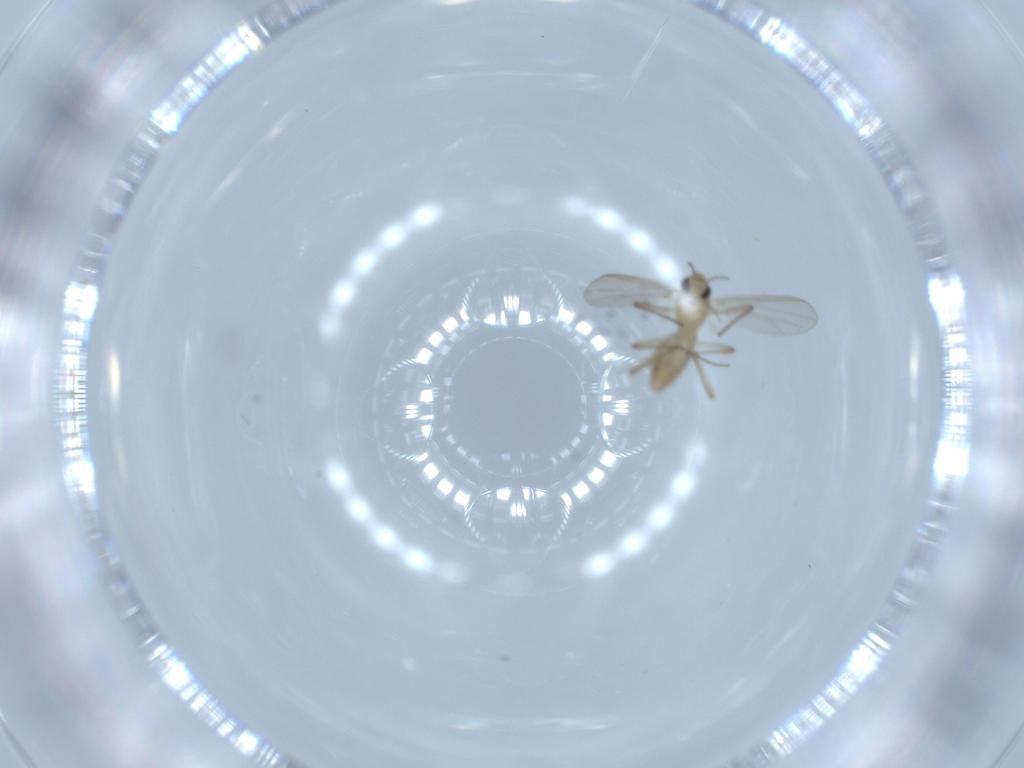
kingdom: Animalia
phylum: Arthropoda
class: Insecta
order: Diptera
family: Chironomidae
